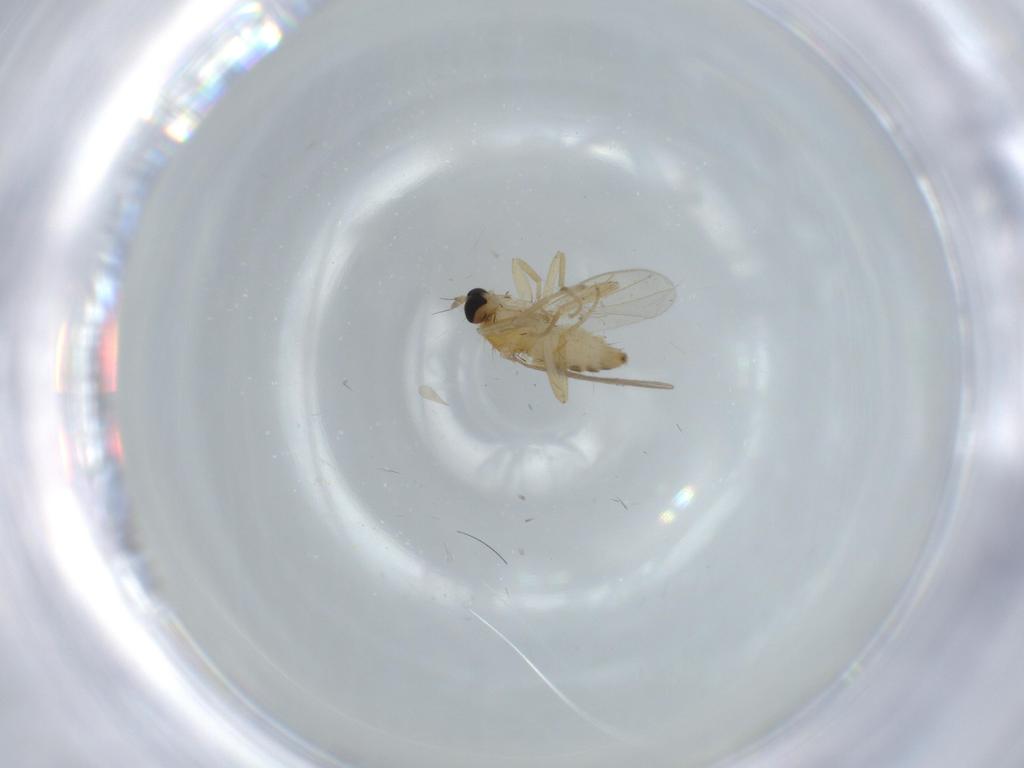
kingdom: Animalia
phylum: Arthropoda
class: Insecta
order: Diptera
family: Hybotidae
